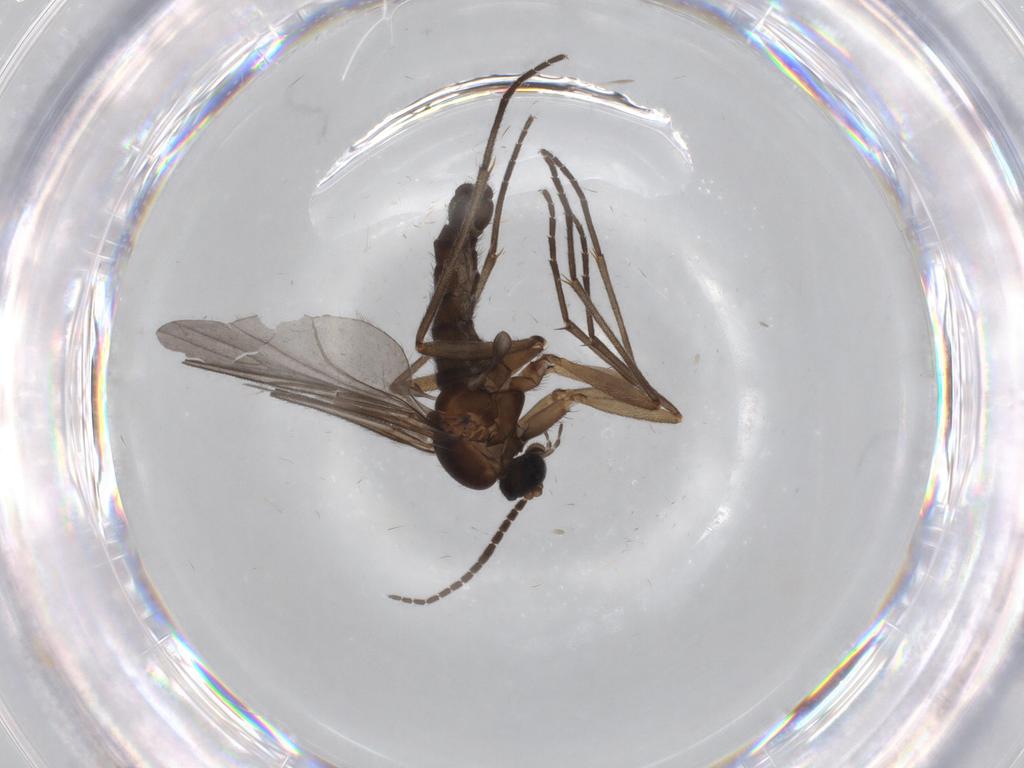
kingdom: Animalia
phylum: Arthropoda
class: Insecta
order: Diptera
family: Sciaridae
